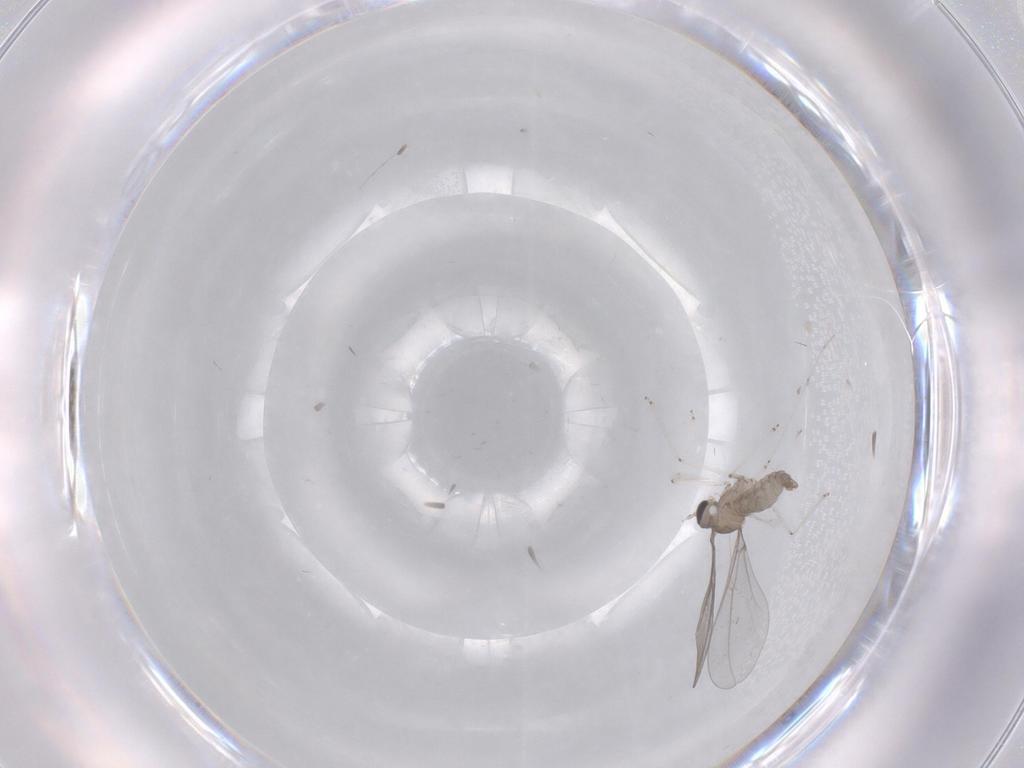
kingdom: Animalia
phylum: Arthropoda
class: Insecta
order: Diptera
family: Cecidomyiidae
